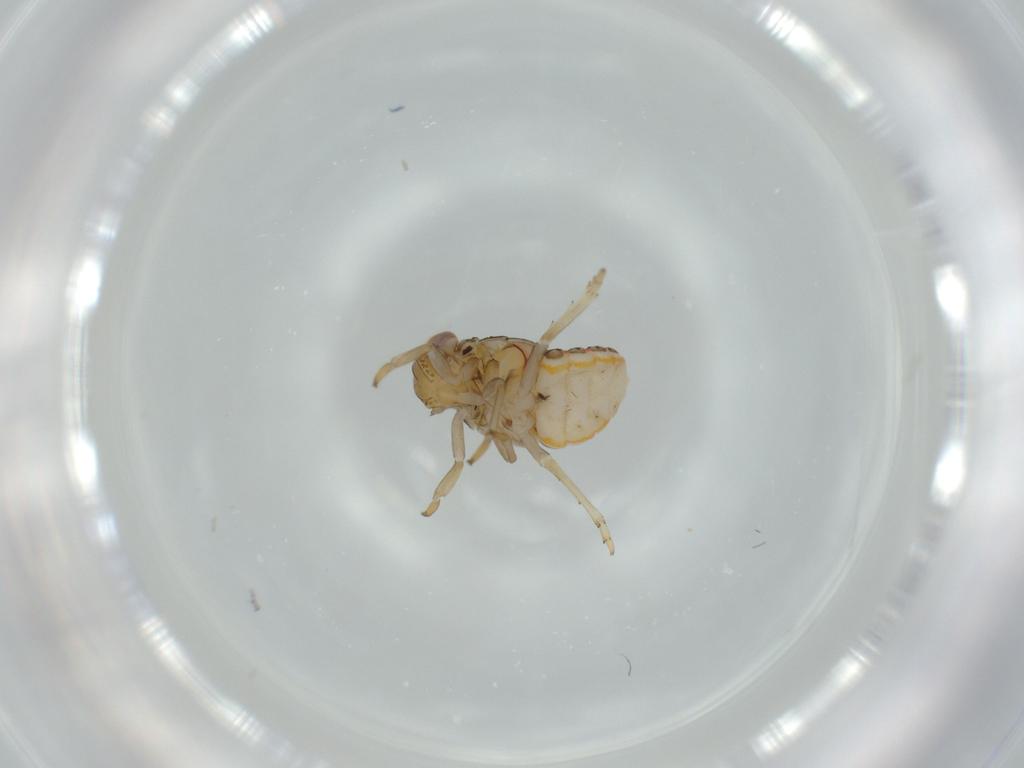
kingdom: Animalia
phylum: Arthropoda
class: Insecta
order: Hemiptera
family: Issidae
